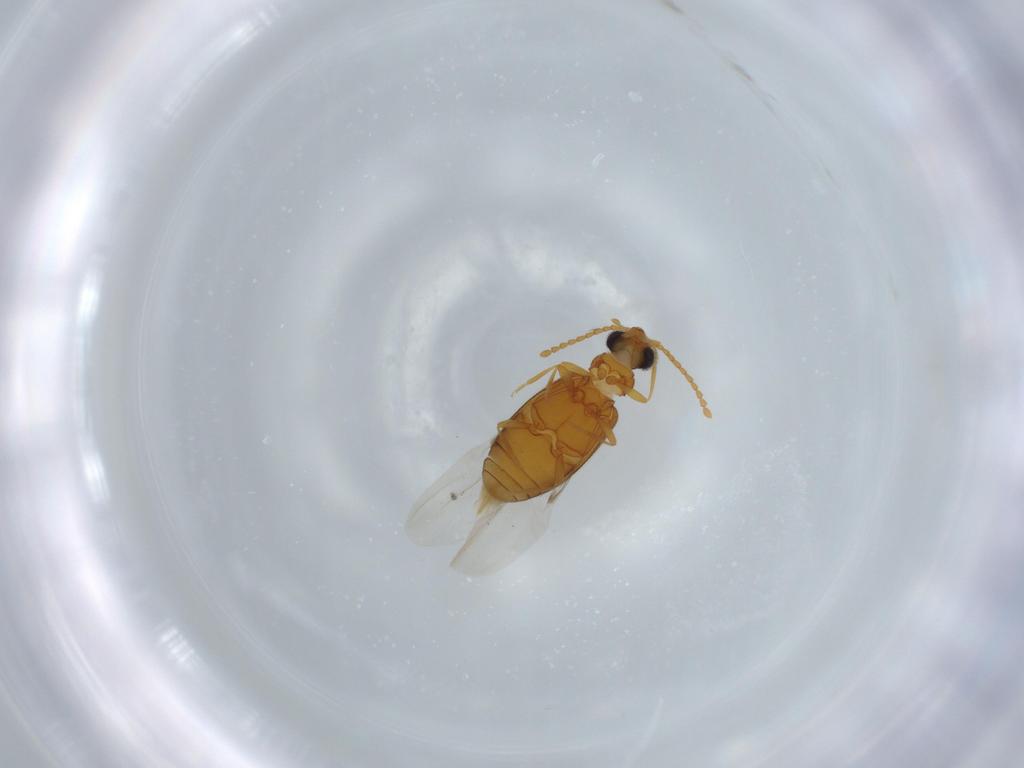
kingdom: Animalia
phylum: Arthropoda
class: Insecta
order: Coleoptera
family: Aderidae
